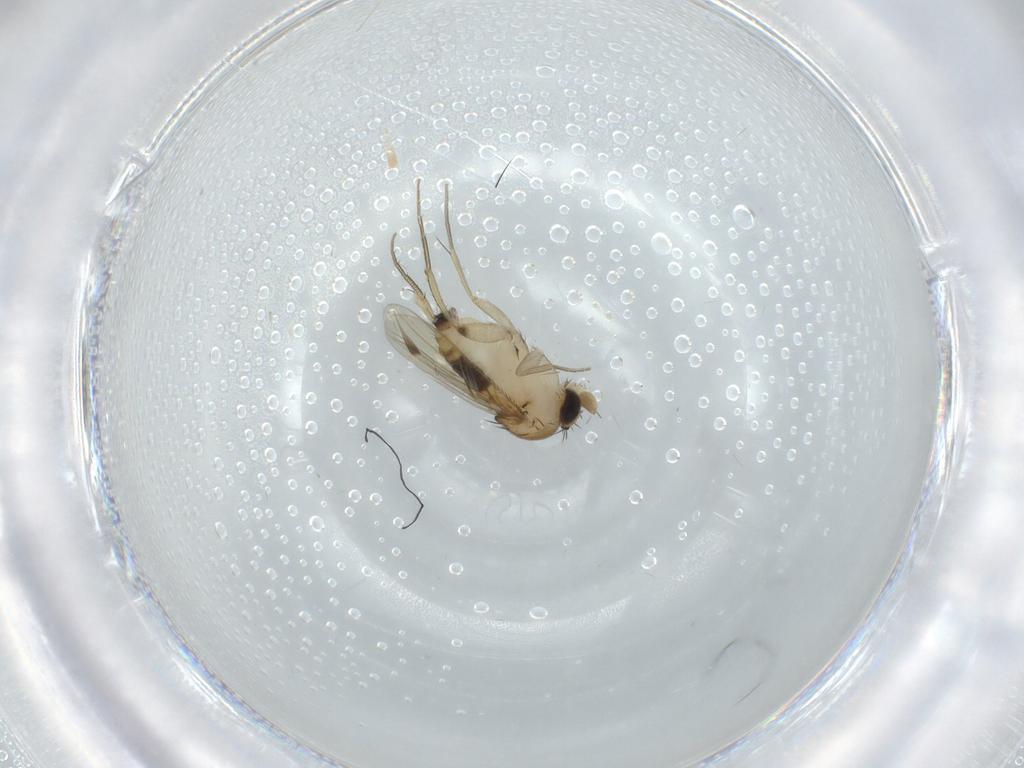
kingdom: Animalia
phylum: Arthropoda
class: Insecta
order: Diptera
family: Phoridae
